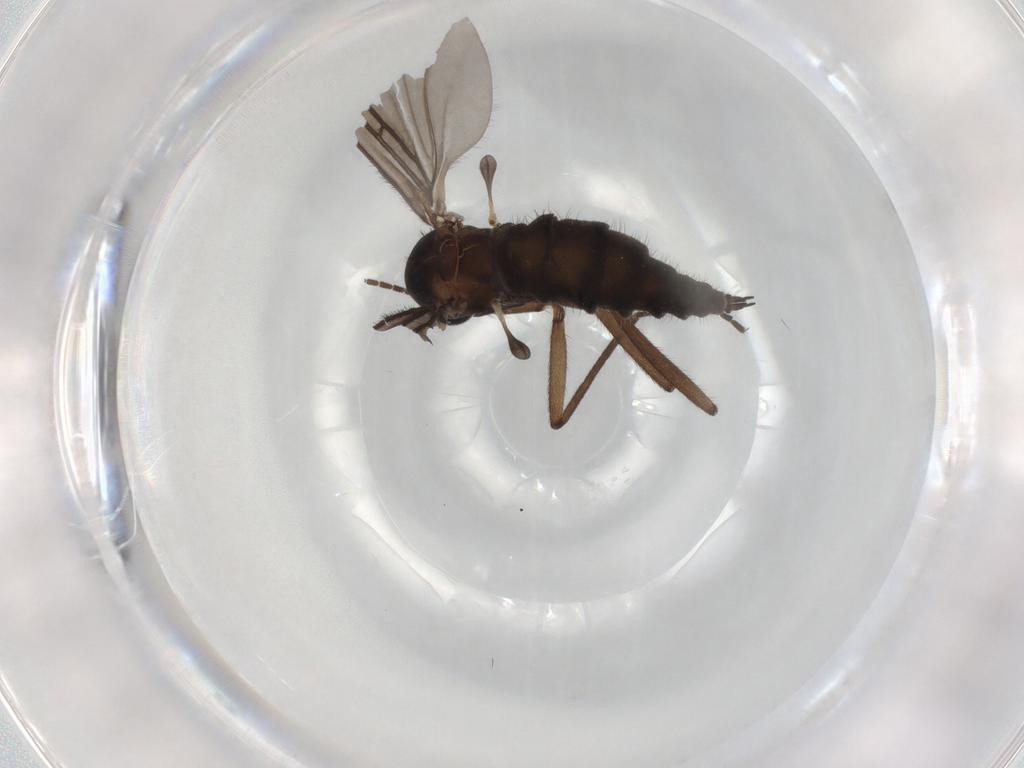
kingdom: Animalia
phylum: Arthropoda
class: Insecta
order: Diptera
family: Sciaridae
